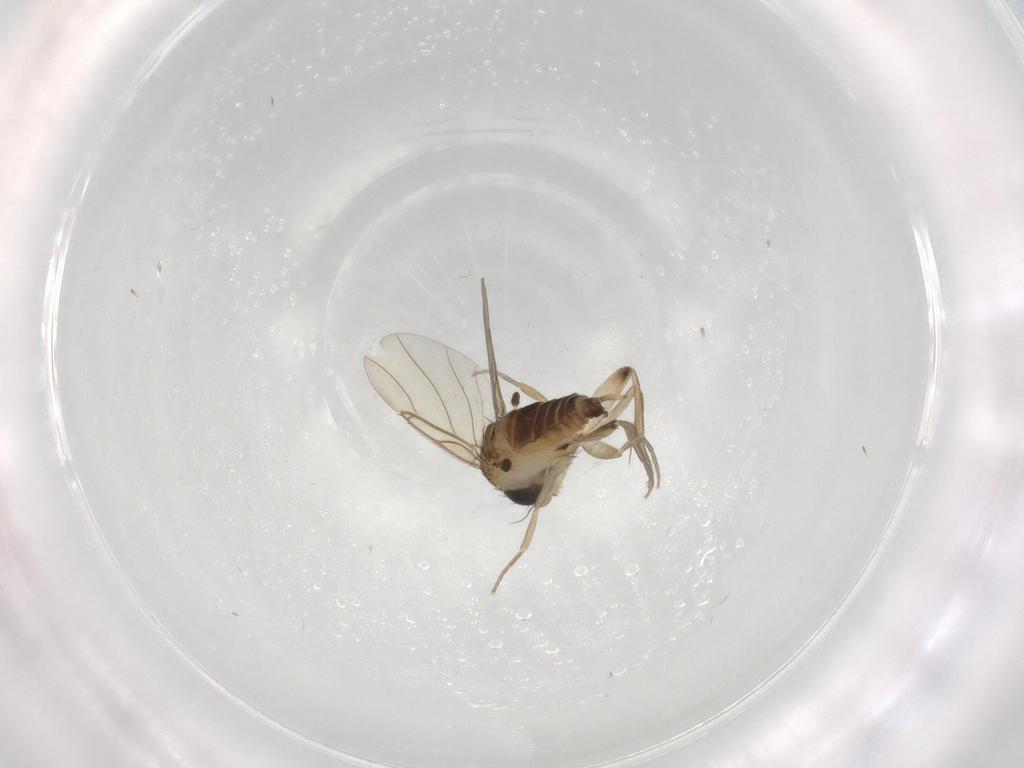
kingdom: Animalia
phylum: Arthropoda
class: Insecta
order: Diptera
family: Phoridae
